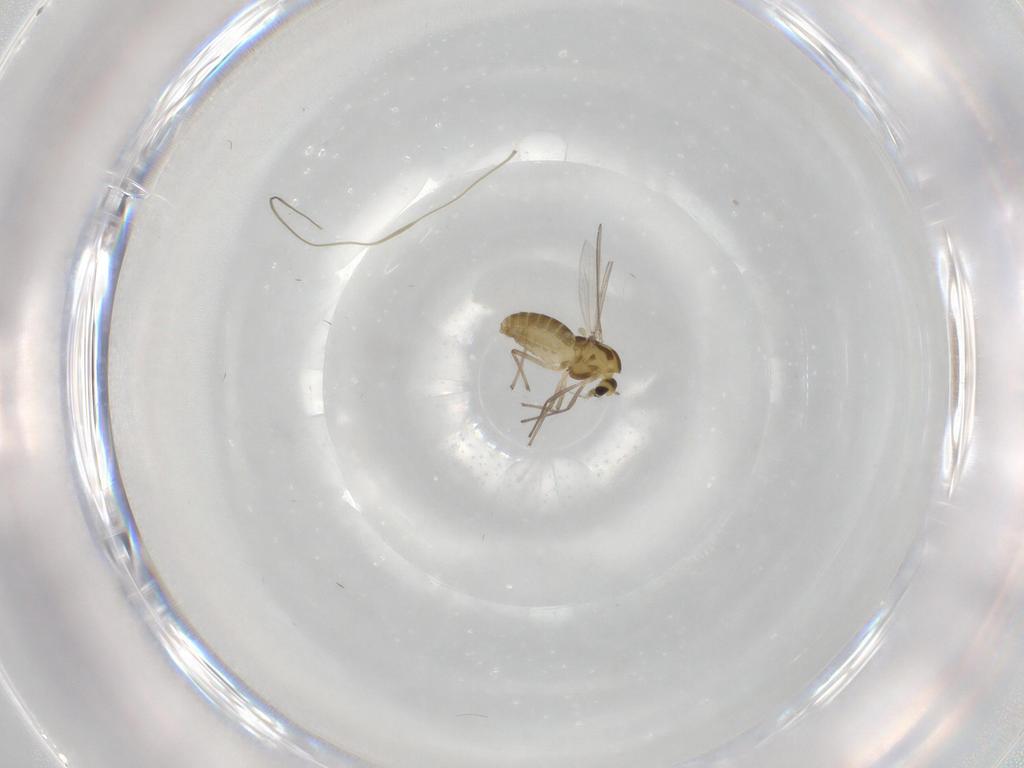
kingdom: Animalia
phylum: Arthropoda
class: Insecta
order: Diptera
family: Chironomidae
